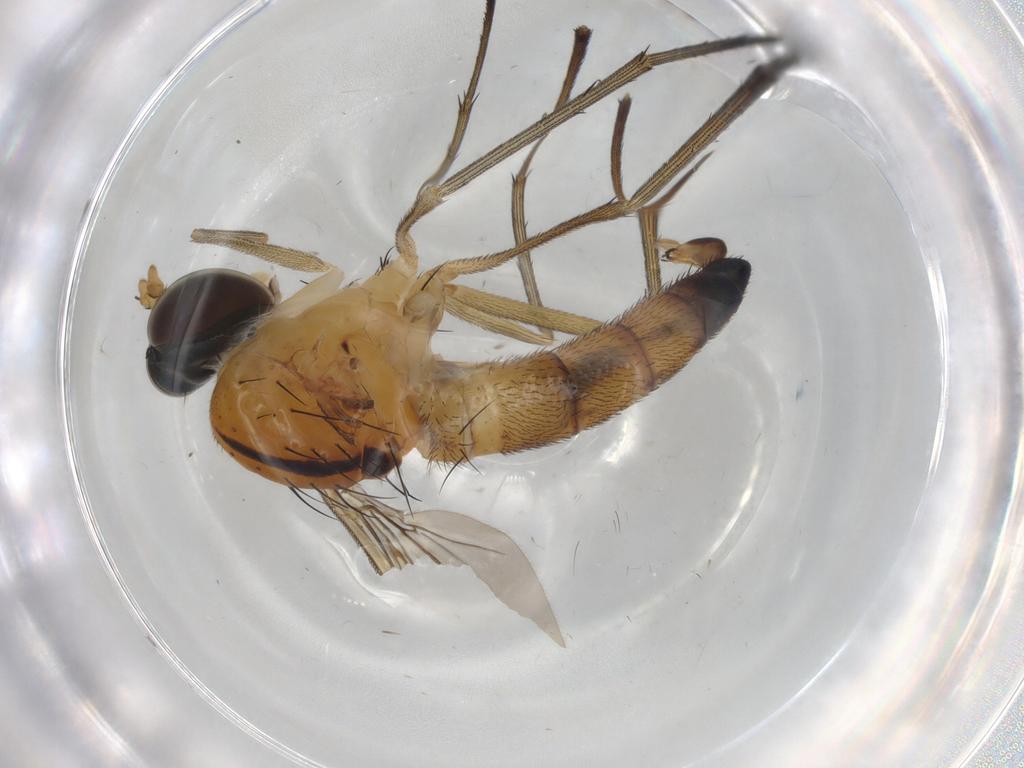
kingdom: Animalia
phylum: Arthropoda
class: Insecta
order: Diptera
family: Chironomidae
